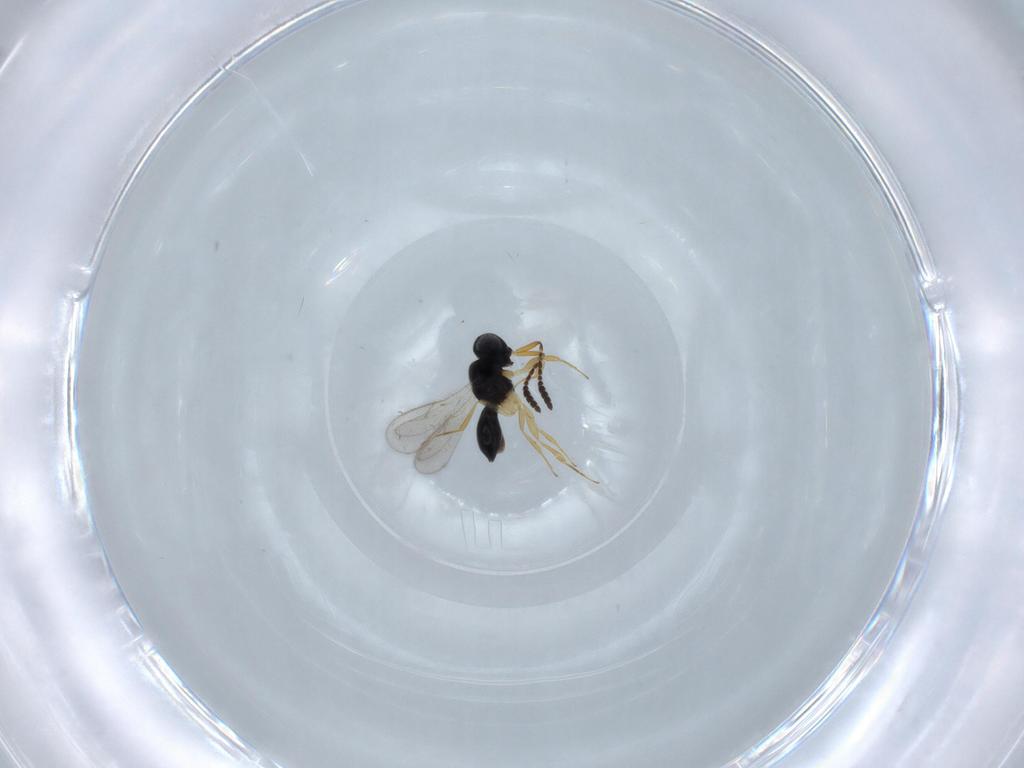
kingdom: Animalia
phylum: Arthropoda
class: Insecta
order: Hymenoptera
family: Scelionidae
